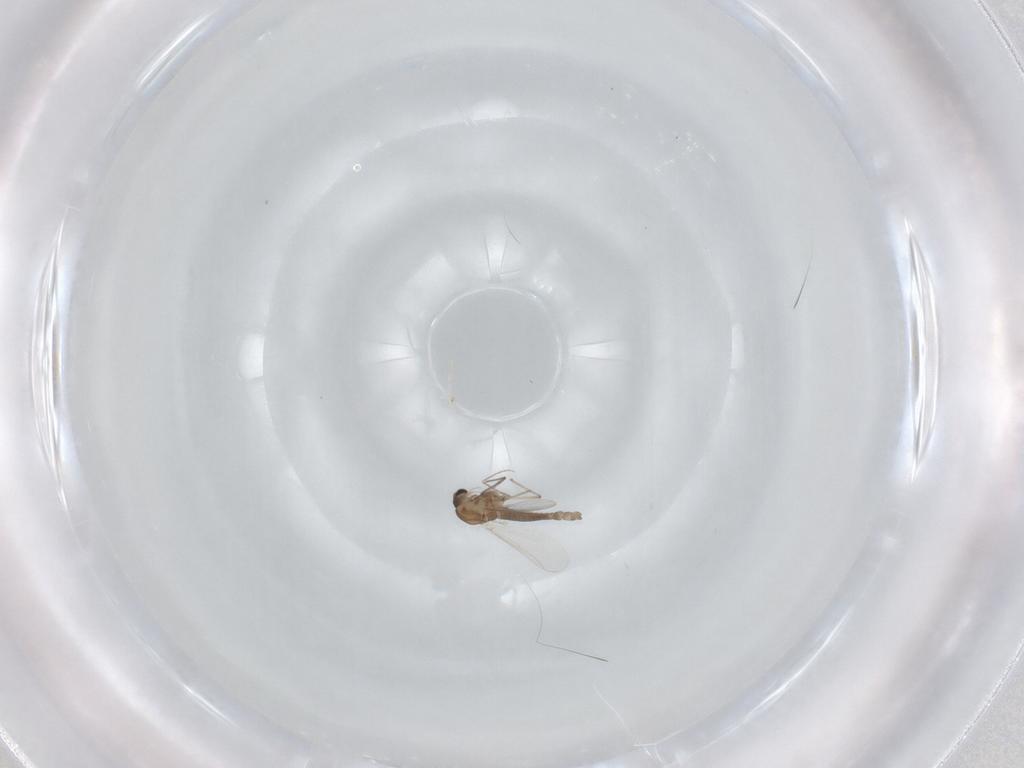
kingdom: Animalia
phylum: Arthropoda
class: Insecta
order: Diptera
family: Chironomidae
